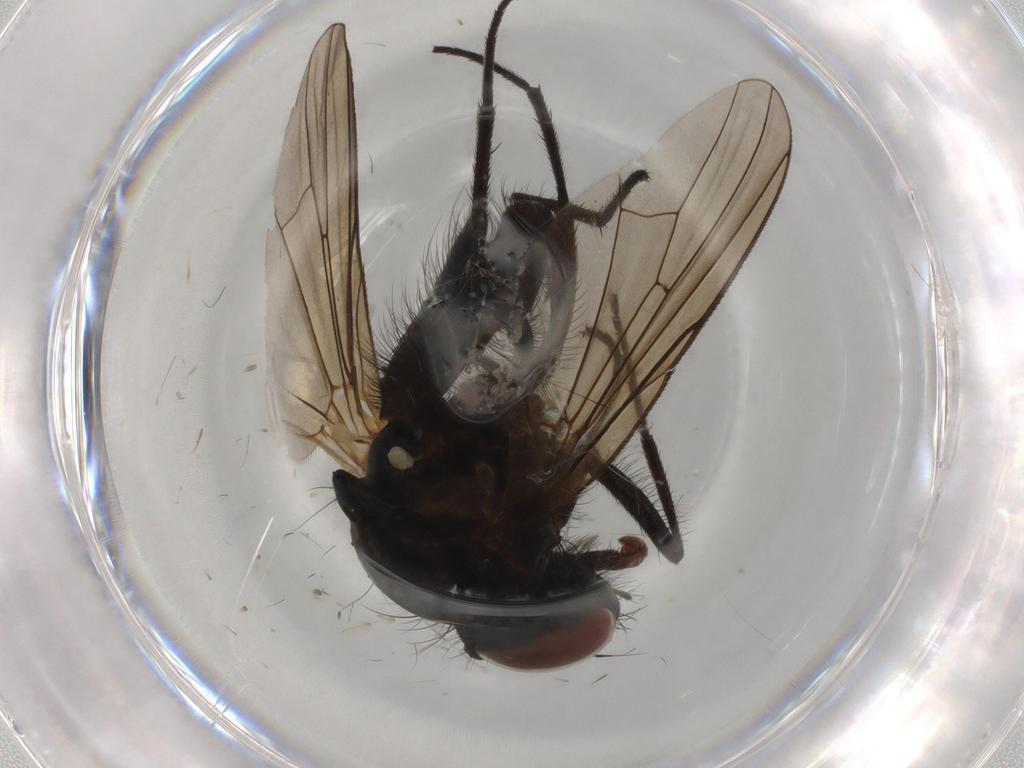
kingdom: Animalia
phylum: Arthropoda
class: Insecta
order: Diptera
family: Anthomyiidae
